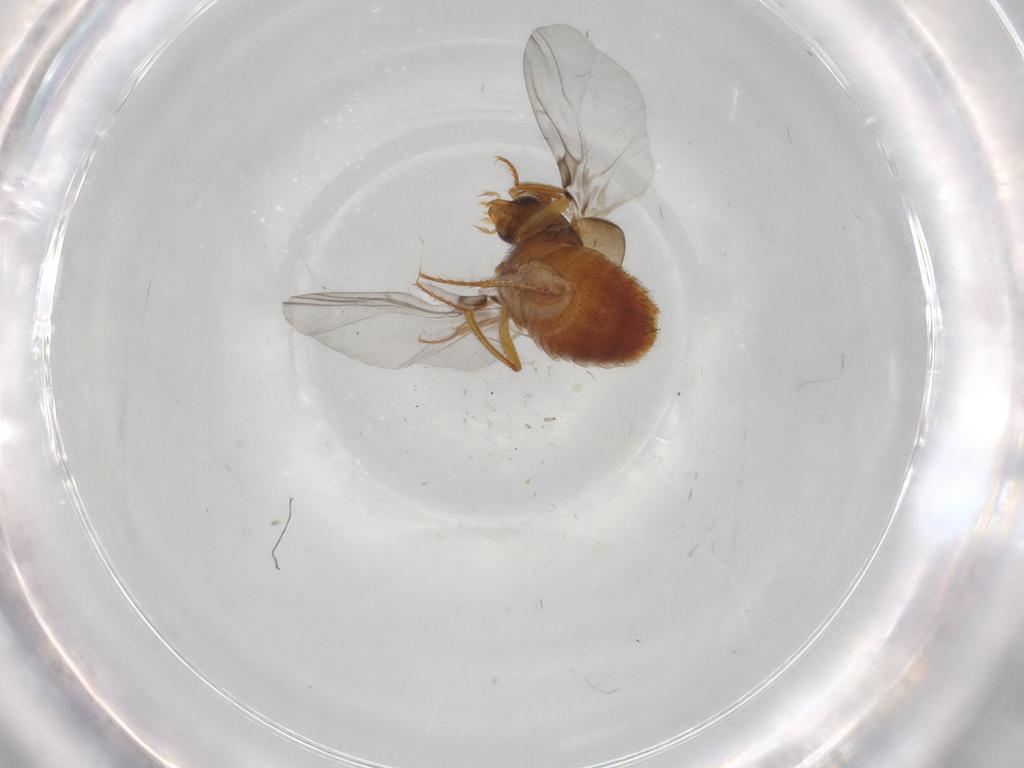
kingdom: Animalia
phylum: Arthropoda
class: Insecta
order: Coleoptera
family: Staphylinidae
